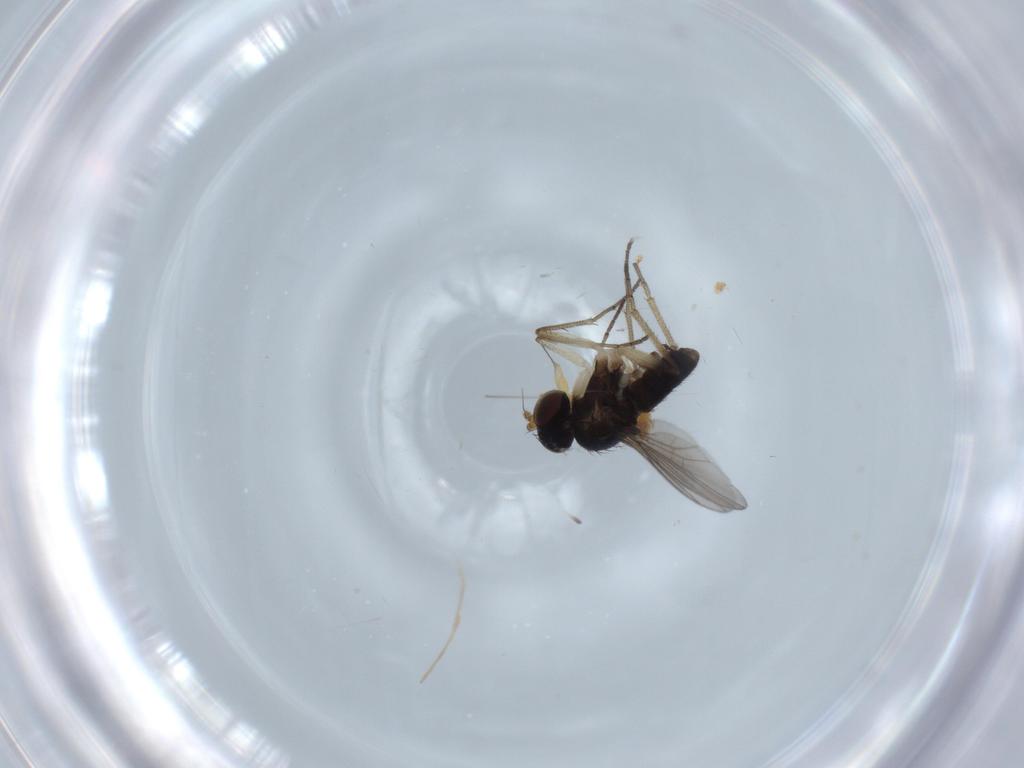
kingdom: Animalia
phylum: Arthropoda
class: Insecta
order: Diptera
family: Dolichopodidae
